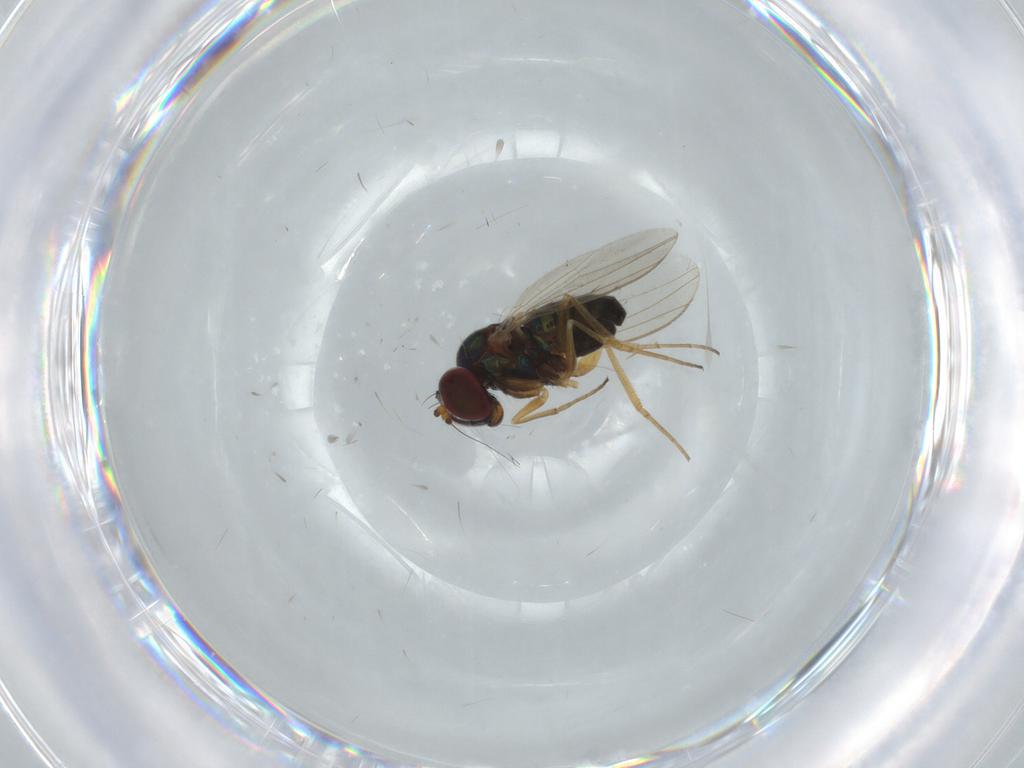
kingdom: Animalia
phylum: Arthropoda
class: Insecta
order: Diptera
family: Dolichopodidae
